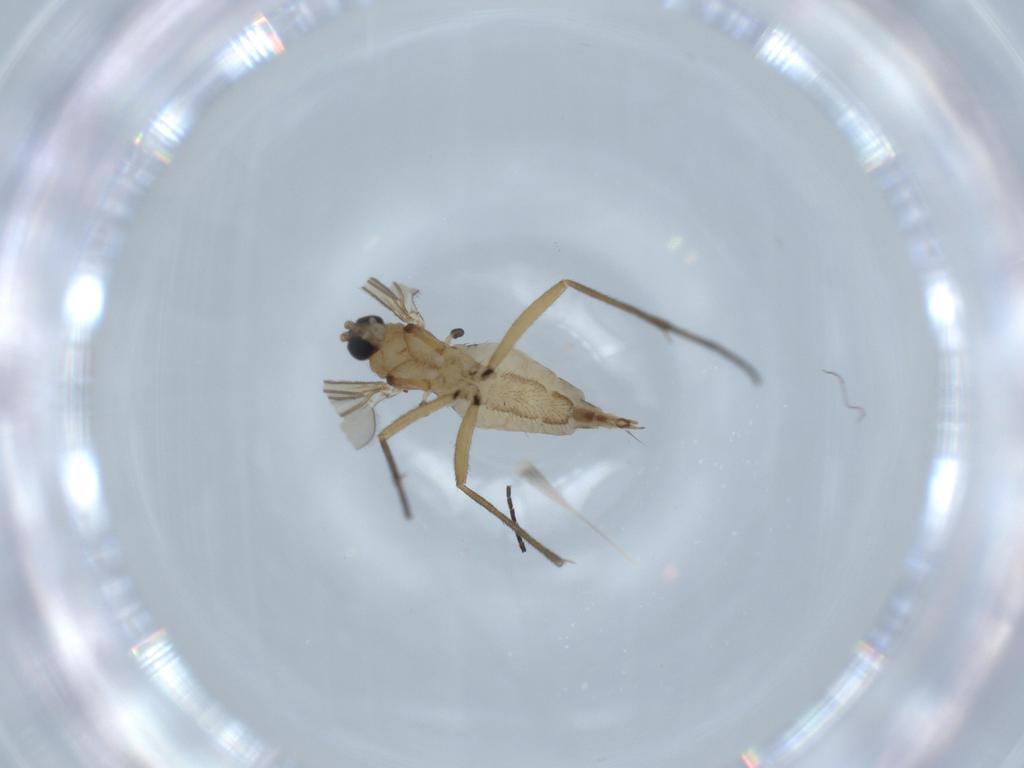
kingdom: Animalia
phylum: Arthropoda
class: Insecta
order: Diptera
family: Sciaridae
